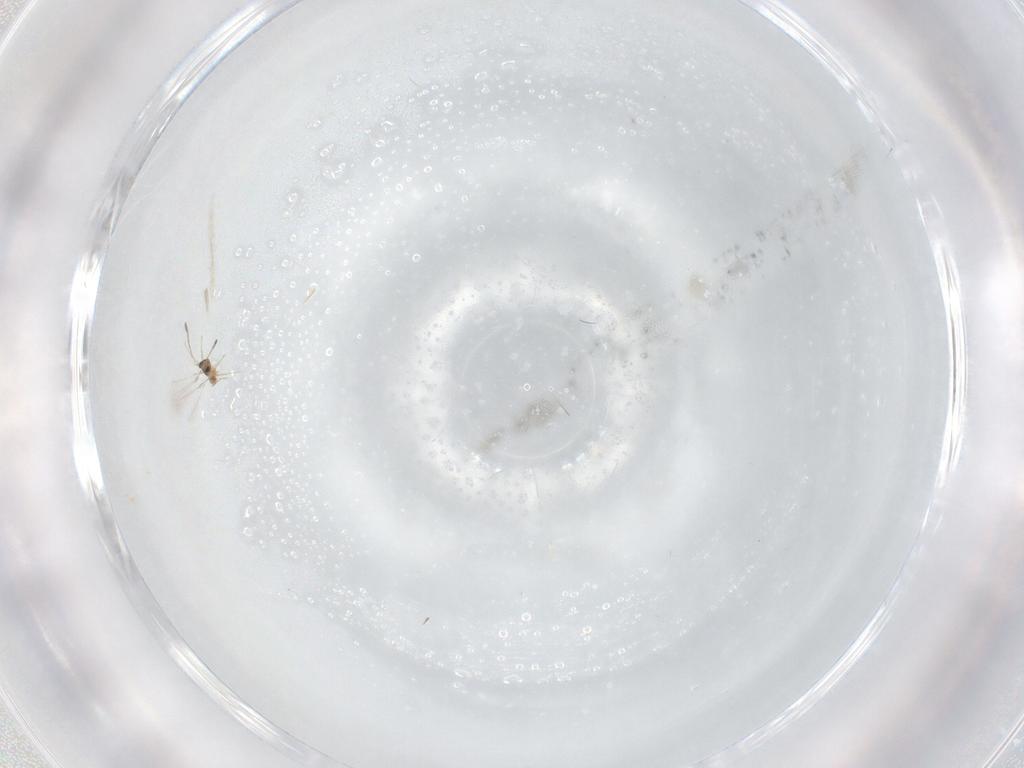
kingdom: Animalia
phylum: Arthropoda
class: Insecta
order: Hymenoptera
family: Mymaridae
